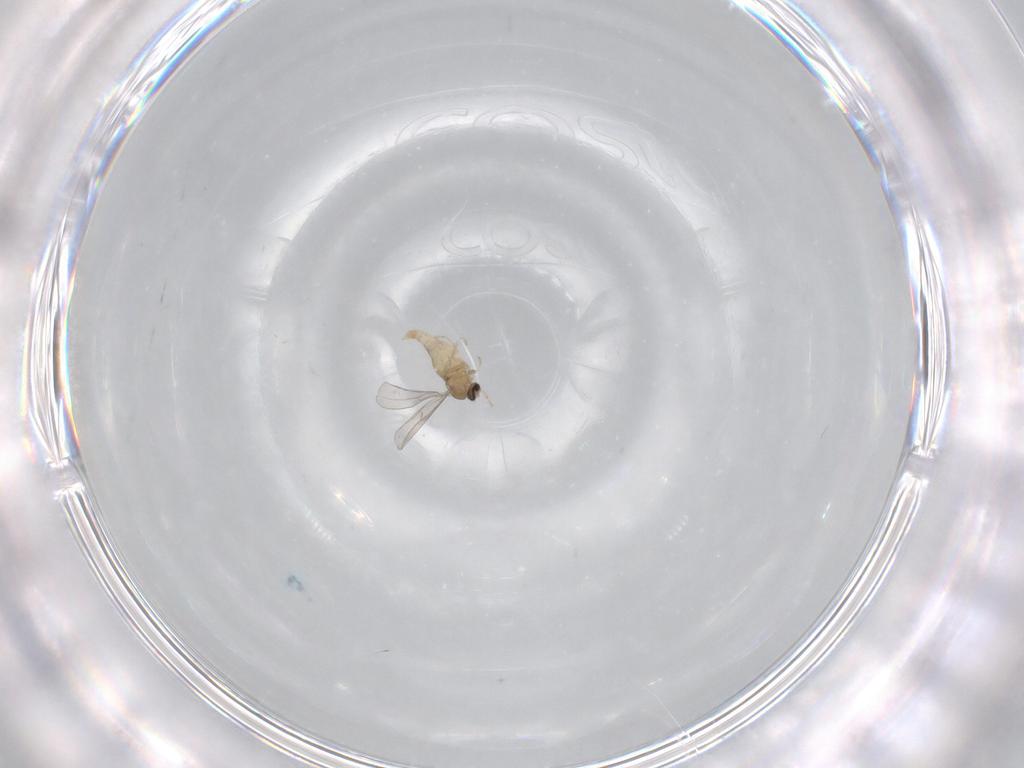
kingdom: Animalia
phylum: Arthropoda
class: Insecta
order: Diptera
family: Cecidomyiidae
